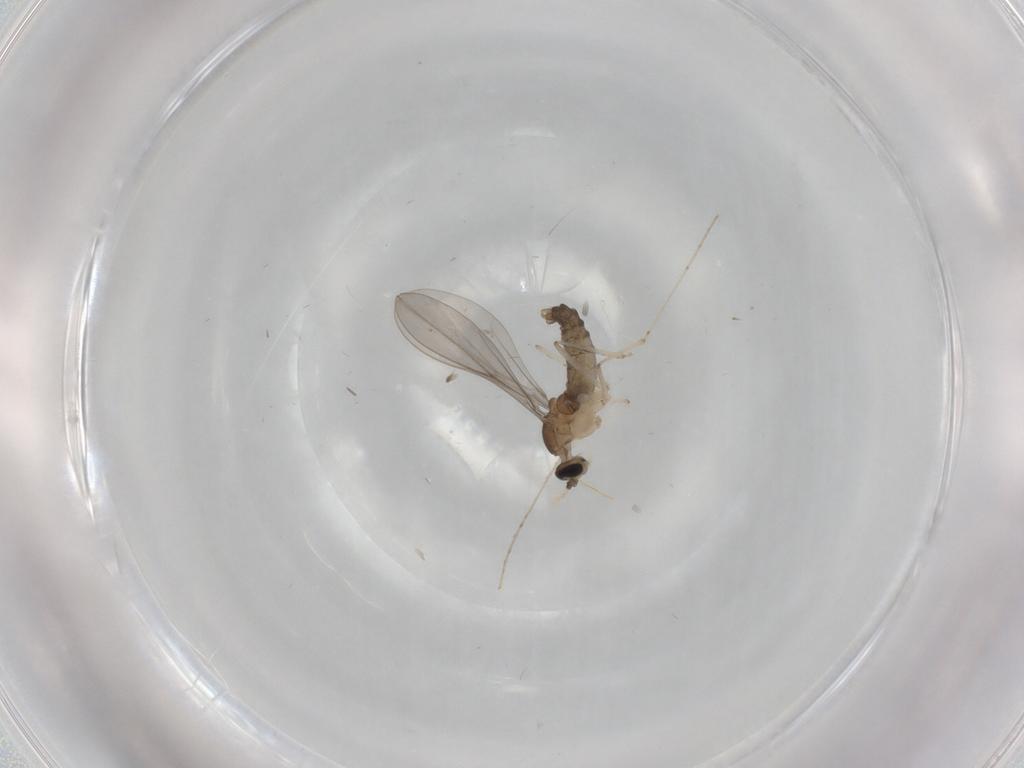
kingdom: Animalia
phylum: Arthropoda
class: Insecta
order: Diptera
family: Cecidomyiidae
